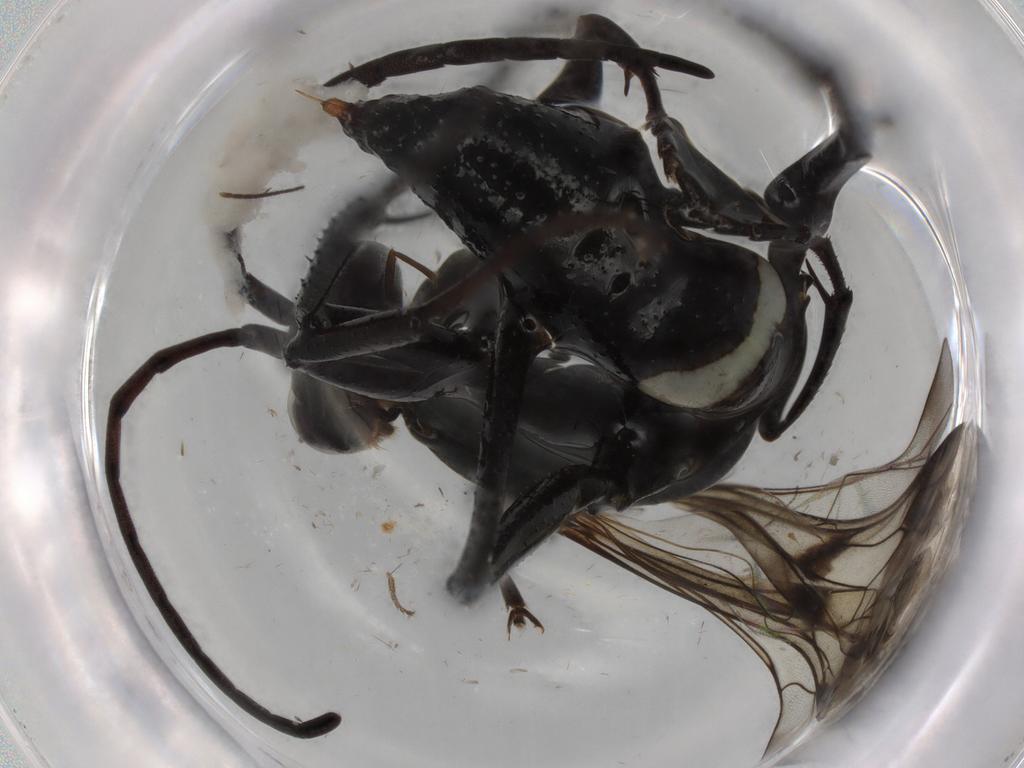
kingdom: Animalia
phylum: Arthropoda
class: Insecta
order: Hymenoptera
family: Pompilidae
